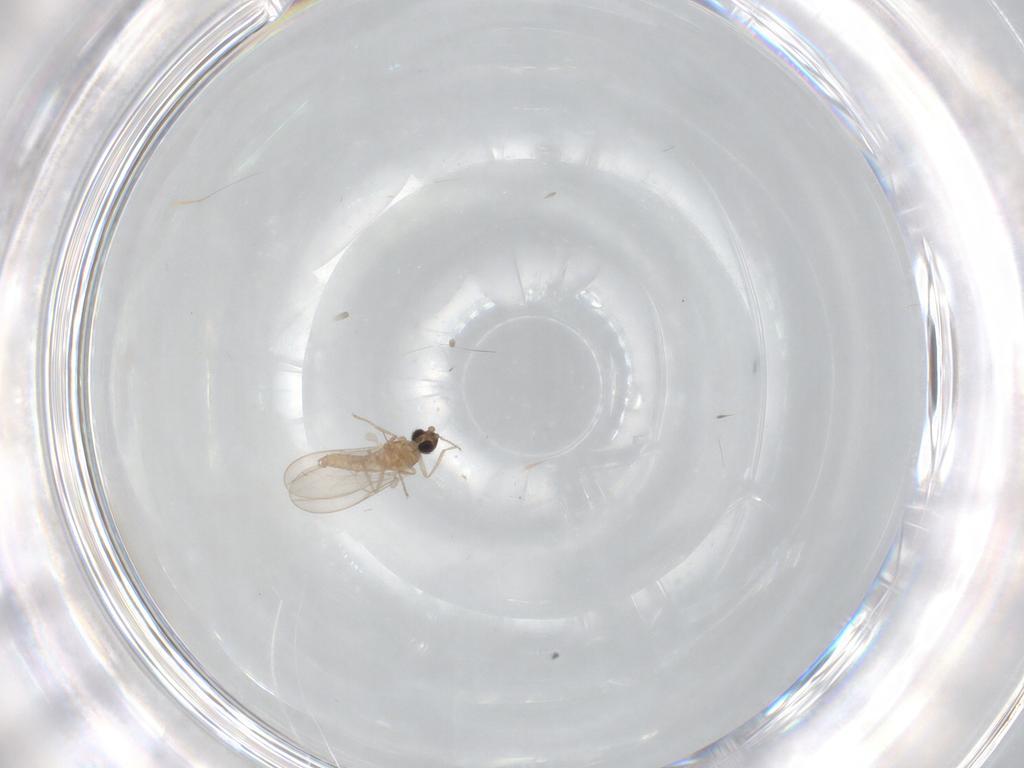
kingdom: Animalia
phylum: Arthropoda
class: Insecta
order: Diptera
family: Cecidomyiidae
